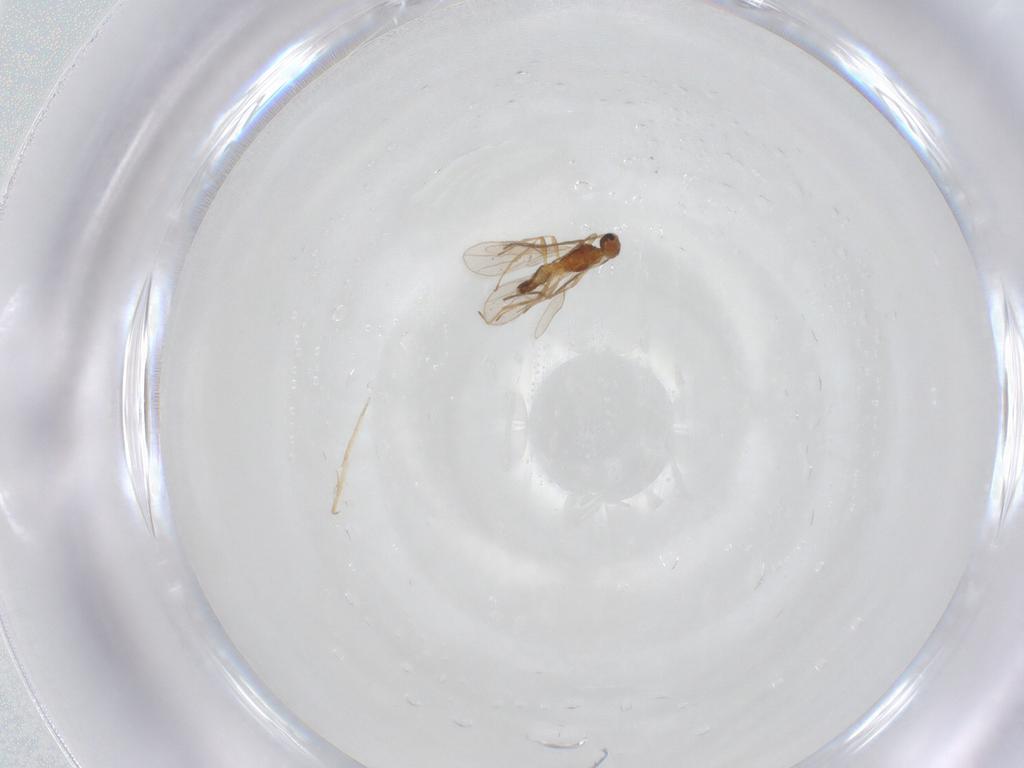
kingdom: Animalia
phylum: Arthropoda
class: Insecta
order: Hymenoptera
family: Braconidae
